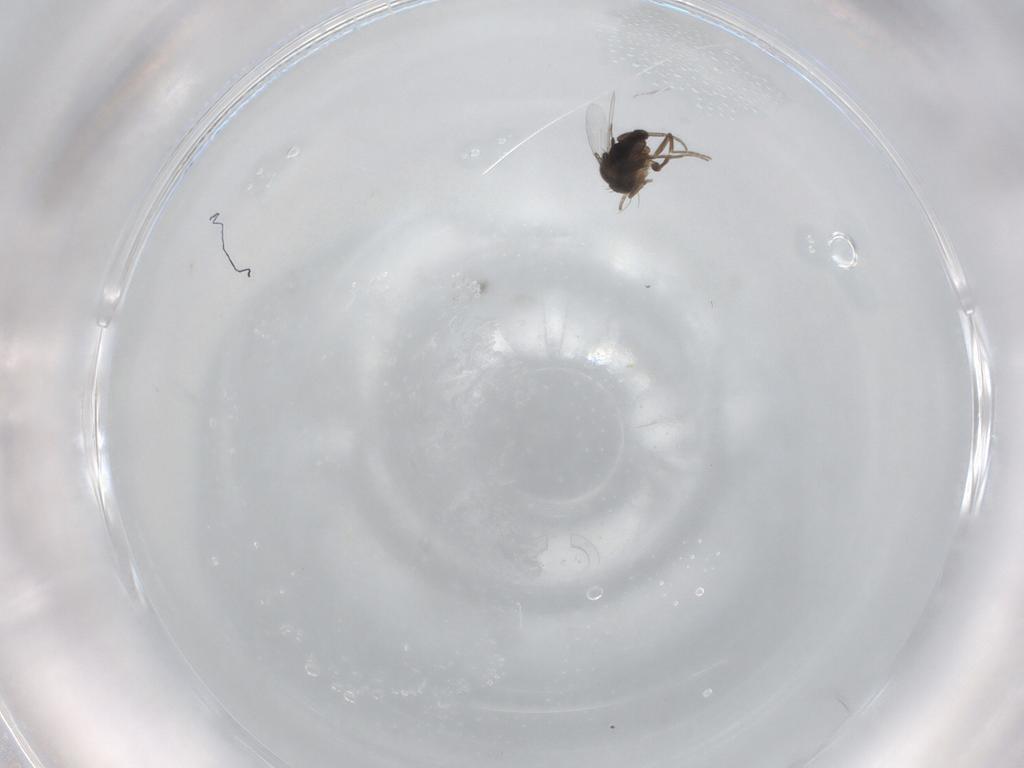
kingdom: Animalia
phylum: Arthropoda
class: Insecta
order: Diptera
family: Phoridae
